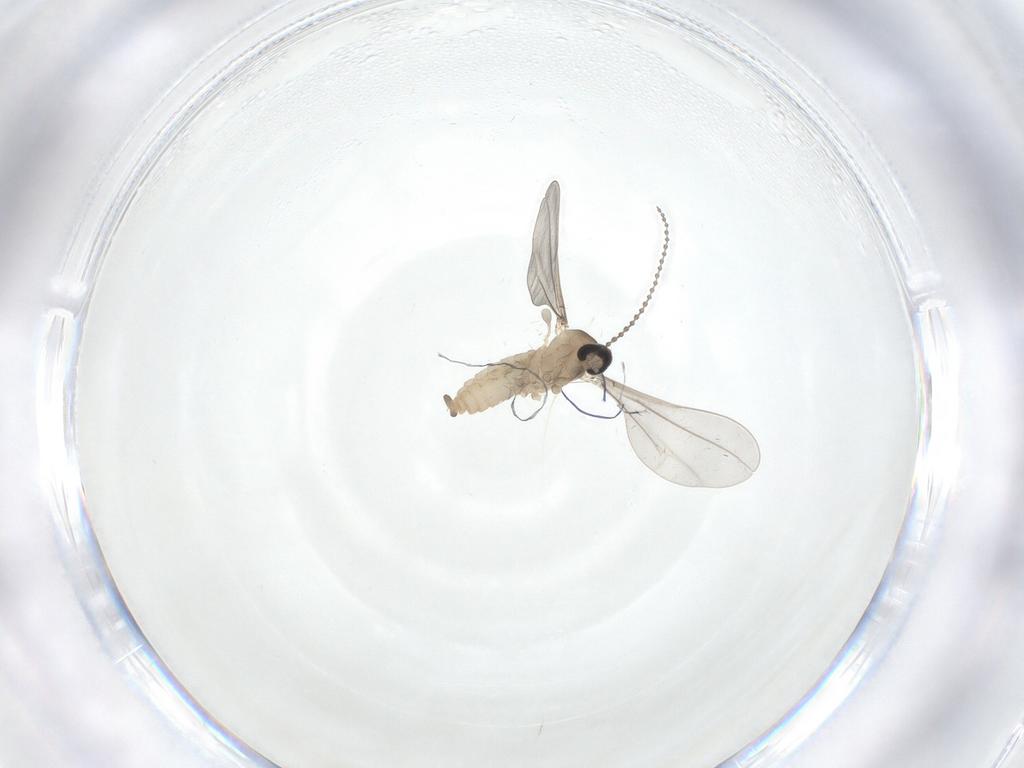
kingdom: Animalia
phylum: Arthropoda
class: Insecta
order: Diptera
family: Cecidomyiidae
